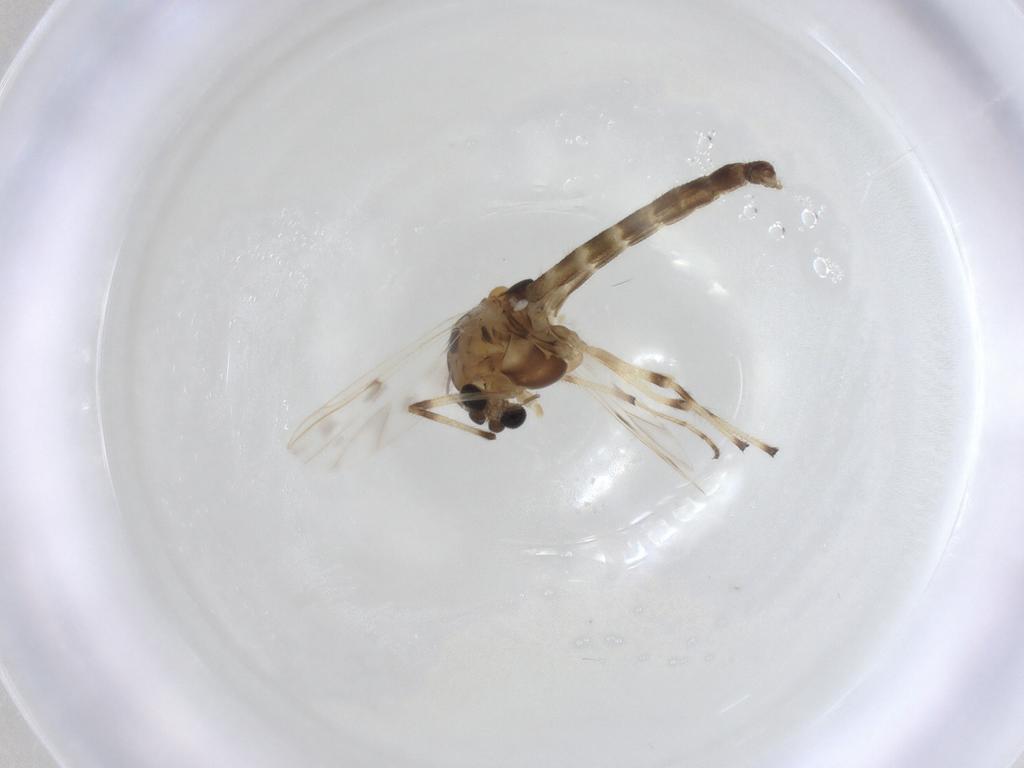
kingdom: Animalia
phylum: Arthropoda
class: Insecta
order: Diptera
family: Chironomidae
